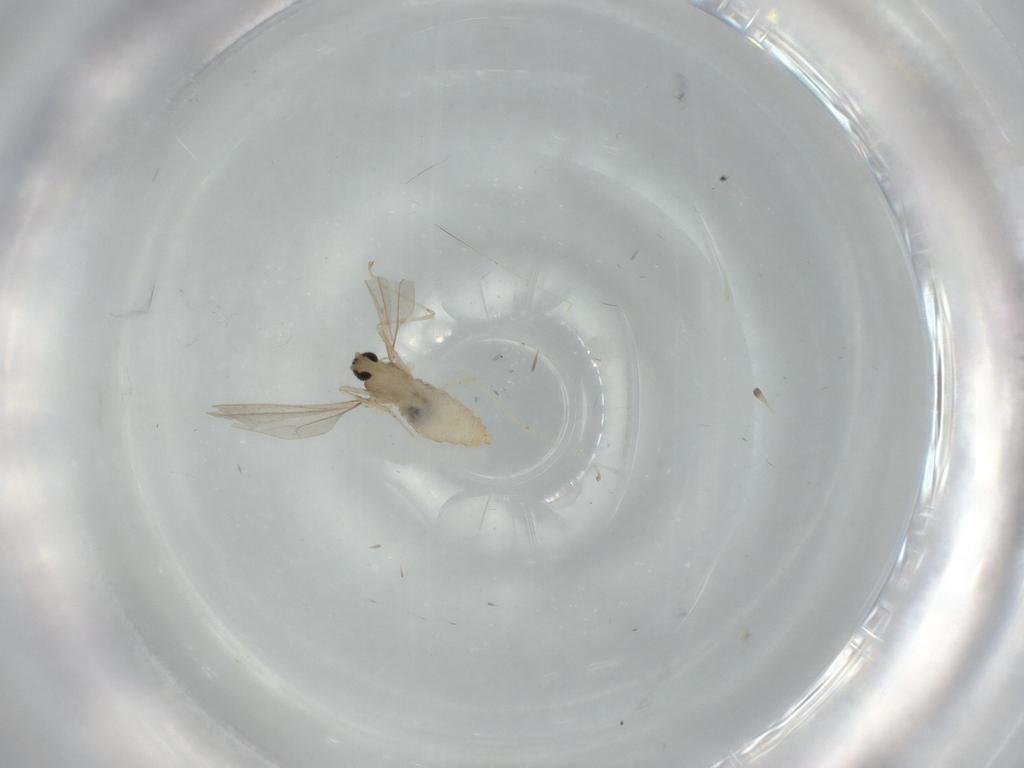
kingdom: Animalia
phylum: Arthropoda
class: Insecta
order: Diptera
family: Cecidomyiidae
